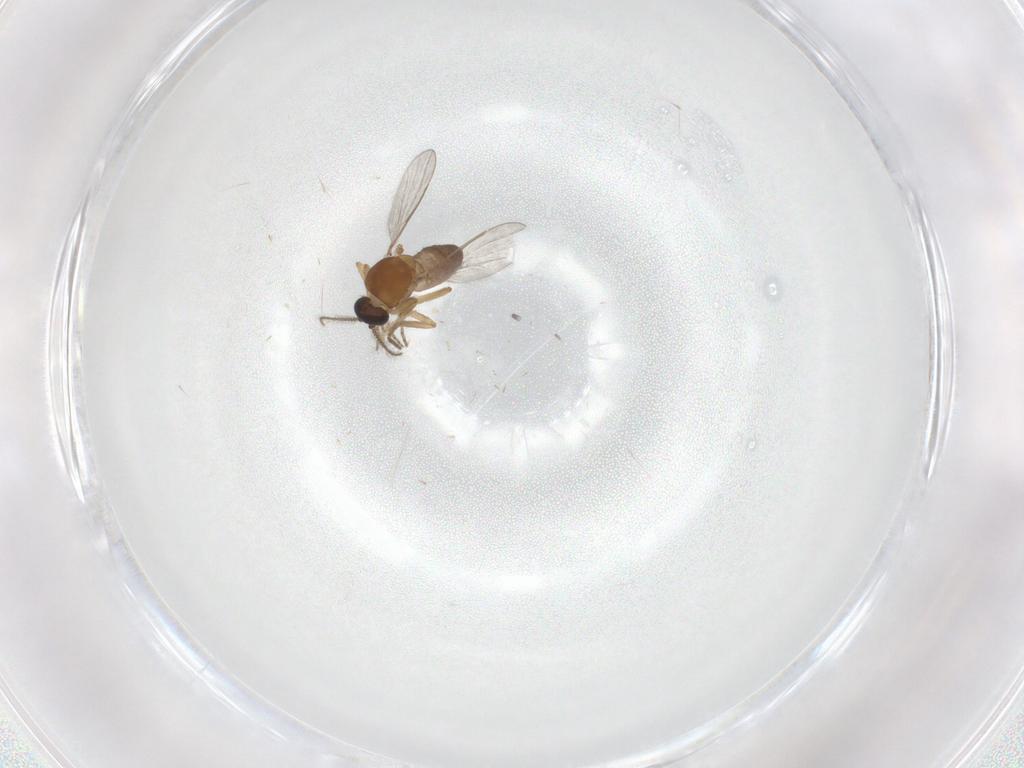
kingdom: Animalia
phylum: Arthropoda
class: Insecta
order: Diptera
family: Ceratopogonidae
